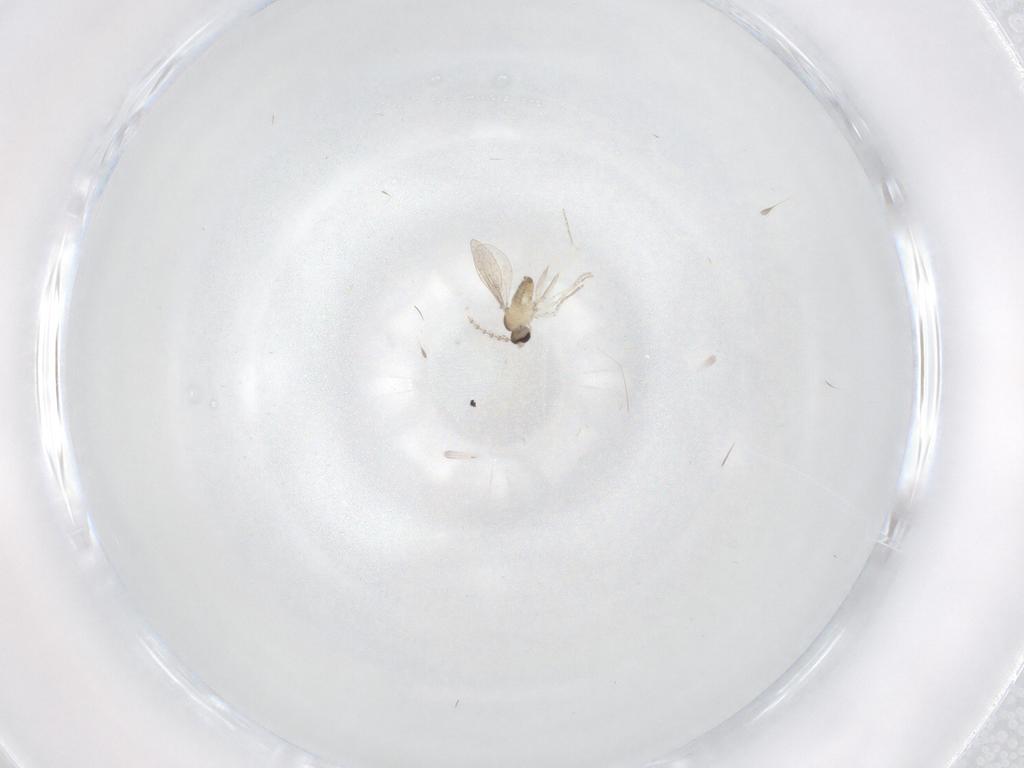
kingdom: Animalia
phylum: Arthropoda
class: Insecta
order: Diptera
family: Cecidomyiidae
